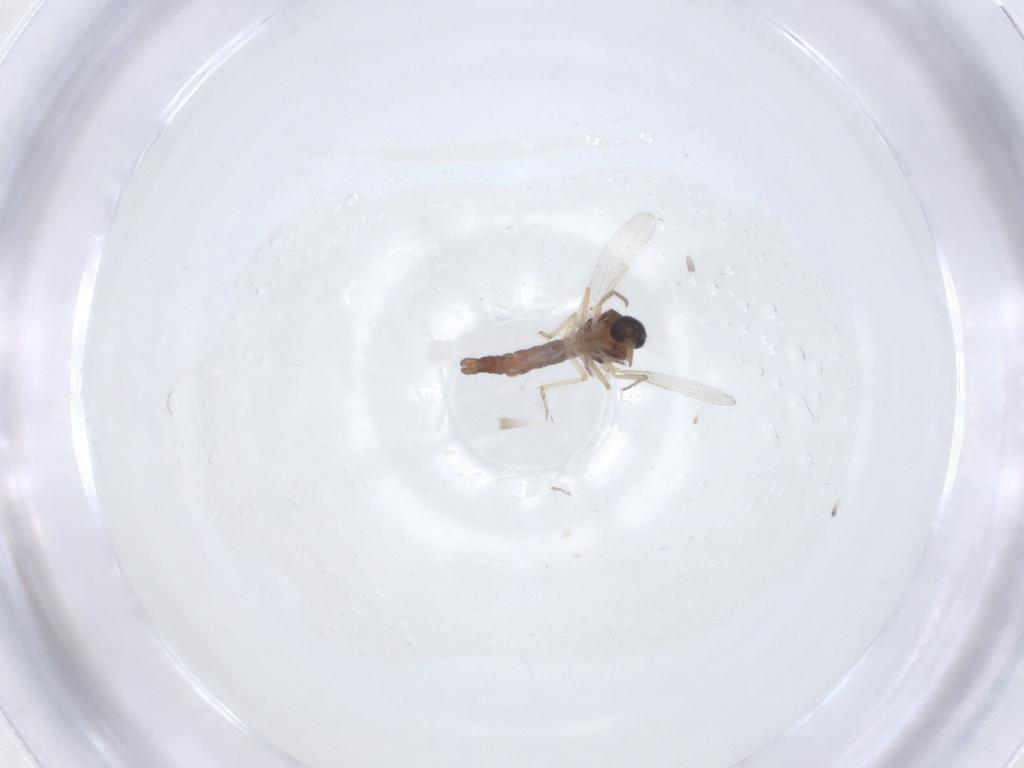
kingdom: Animalia
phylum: Arthropoda
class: Insecta
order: Diptera
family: Ceratopogonidae
